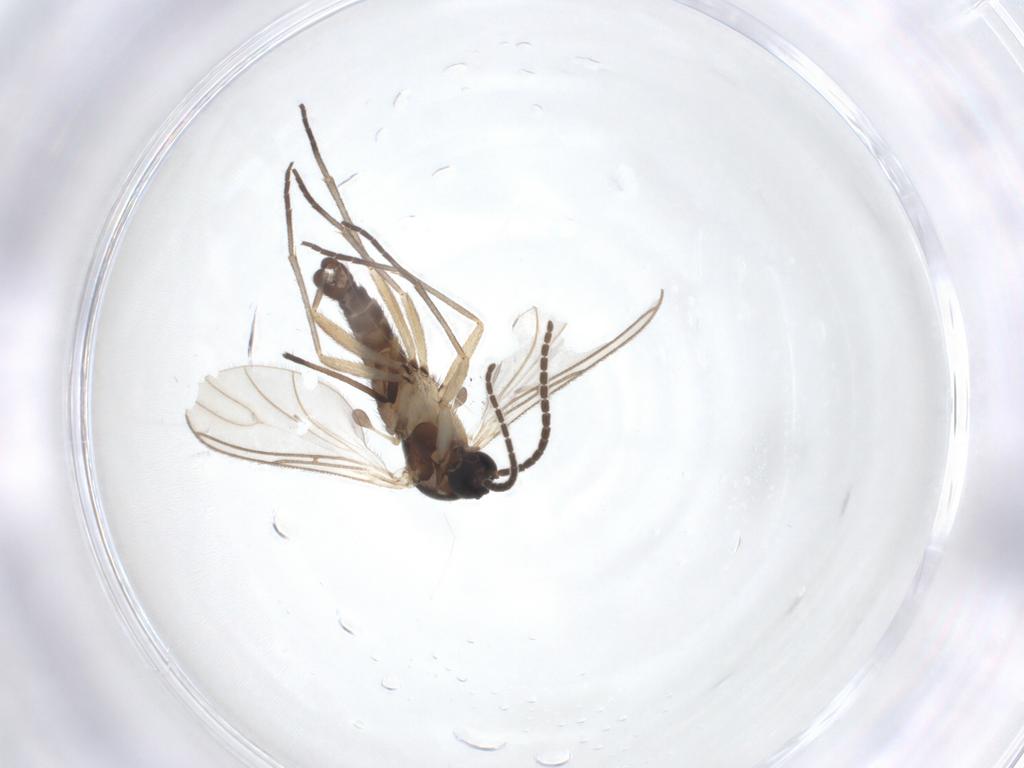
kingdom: Animalia
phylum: Arthropoda
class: Insecta
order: Diptera
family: Sciaridae
